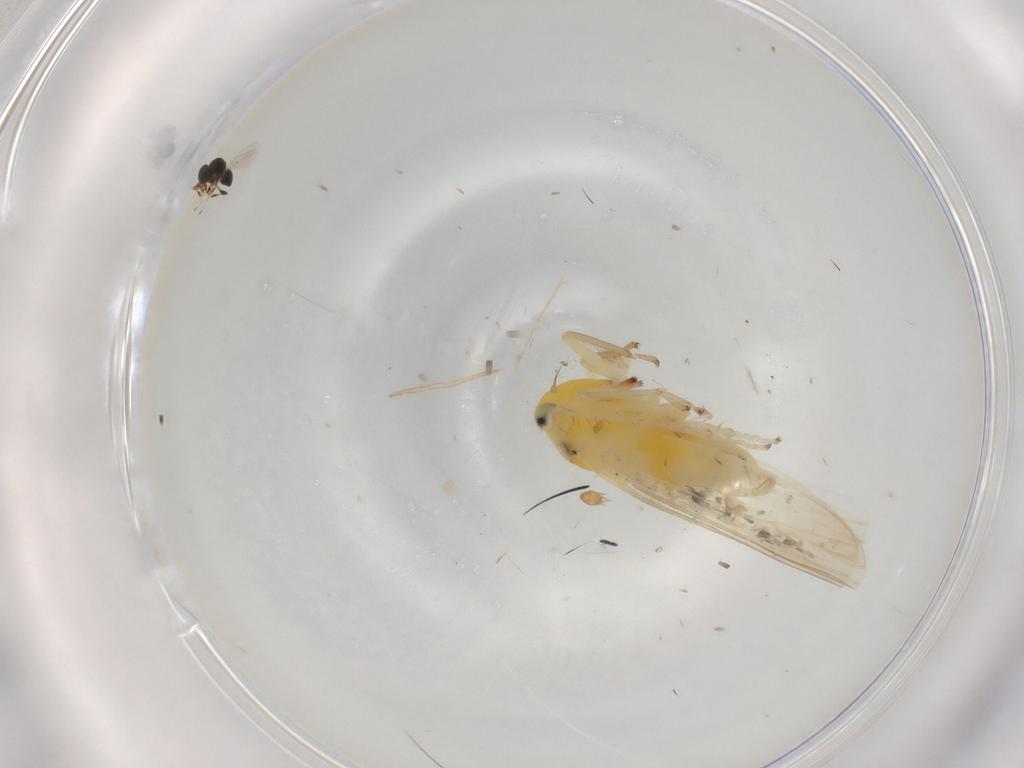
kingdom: Animalia
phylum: Arthropoda
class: Insecta
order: Hemiptera
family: Cicadellidae
